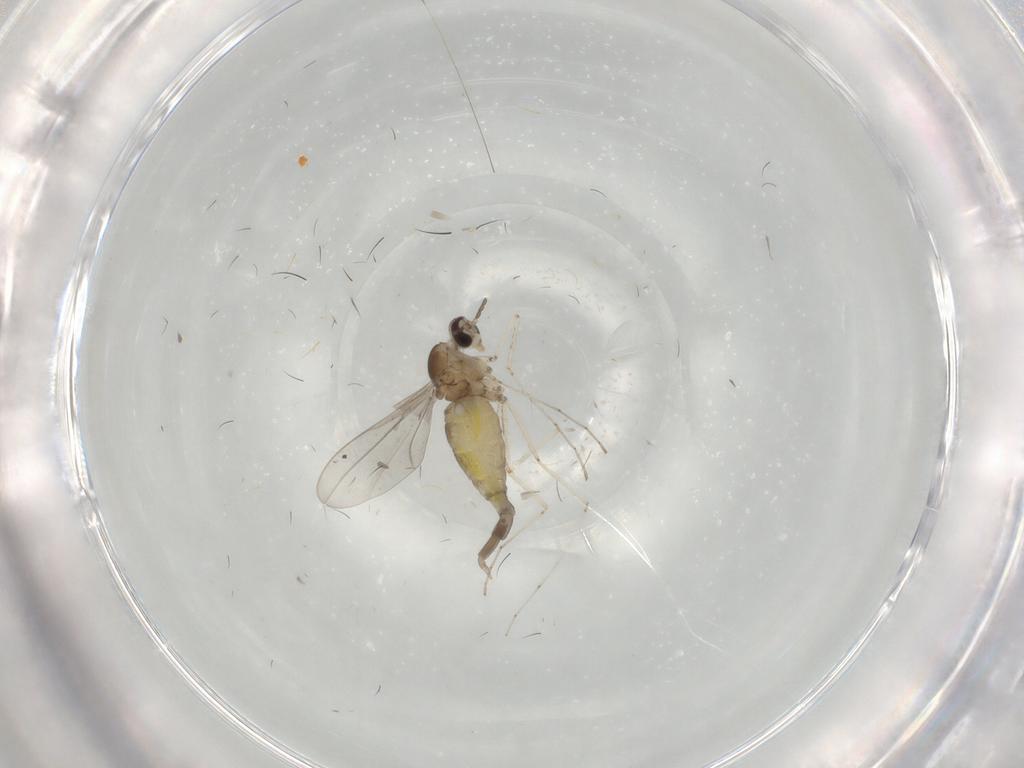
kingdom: Animalia
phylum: Arthropoda
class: Insecta
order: Diptera
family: Cecidomyiidae
